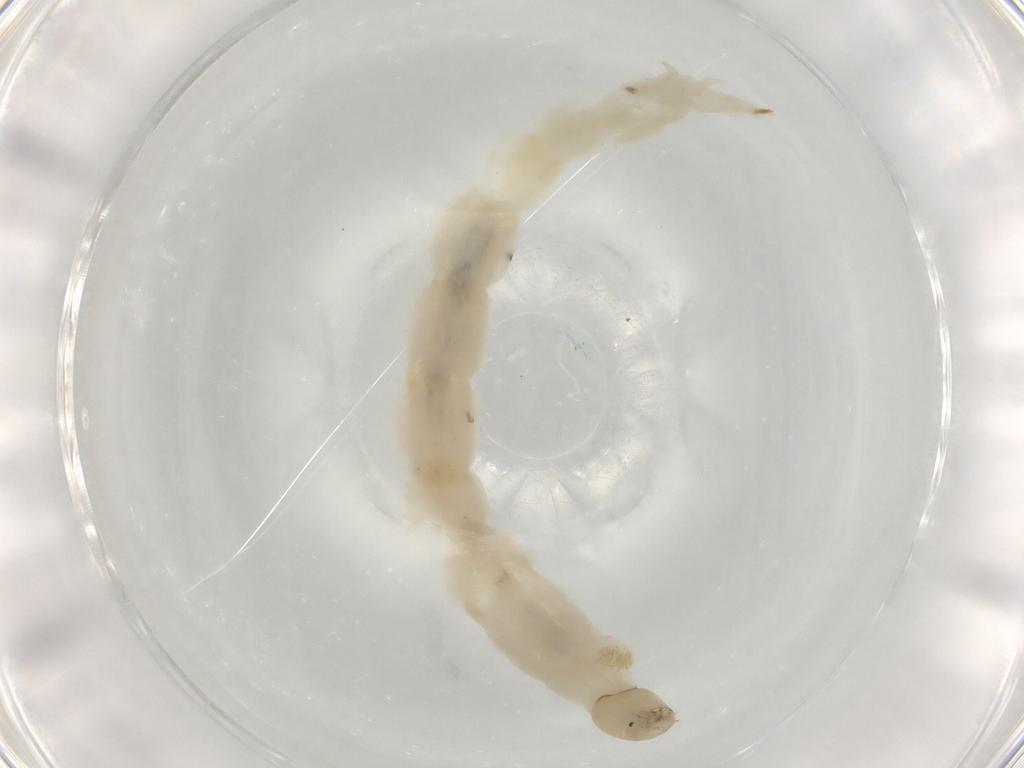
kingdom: Animalia
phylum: Arthropoda
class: Insecta
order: Diptera
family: Chironomidae
